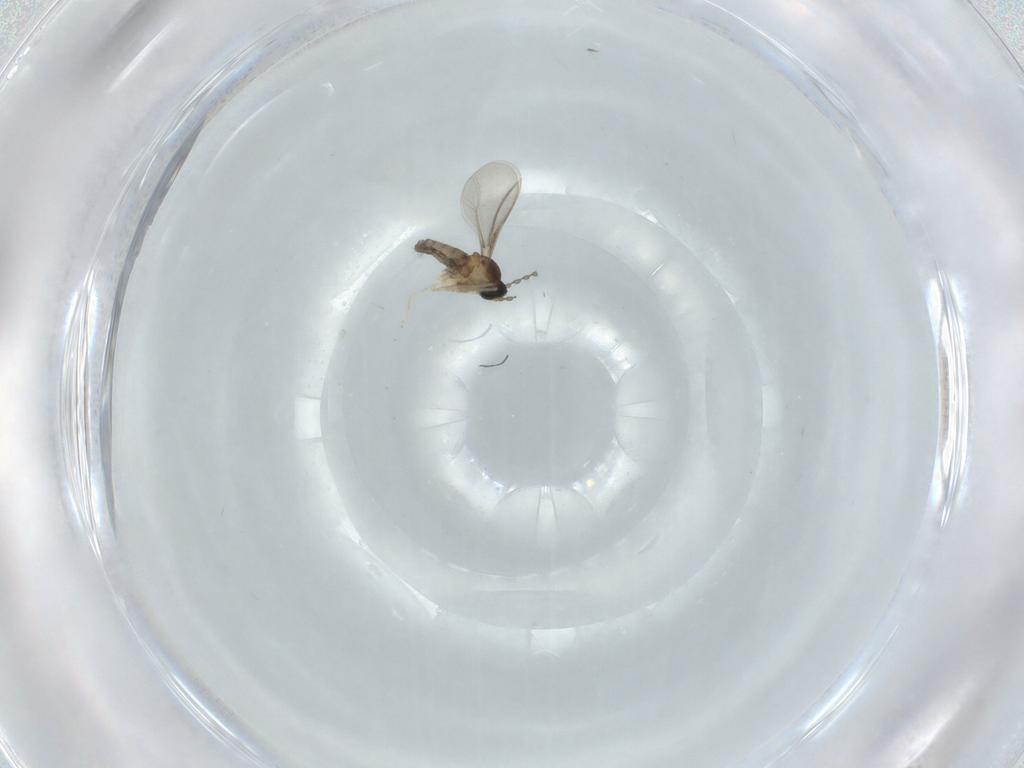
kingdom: Animalia
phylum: Arthropoda
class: Insecta
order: Diptera
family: Cecidomyiidae
